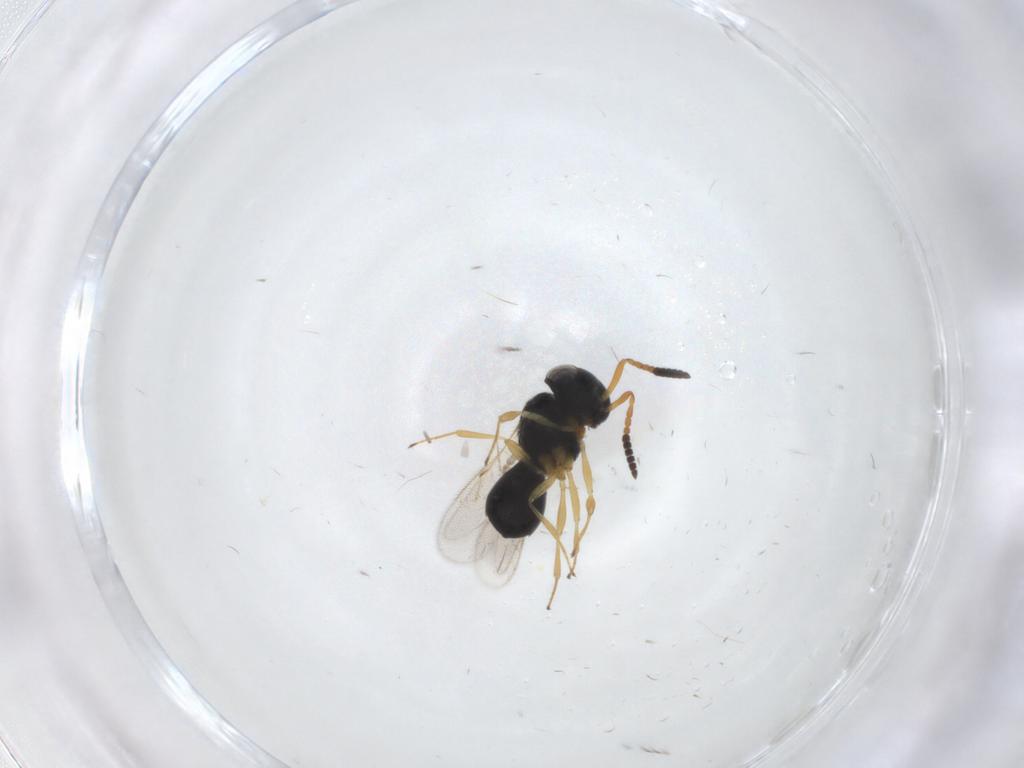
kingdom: Animalia
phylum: Arthropoda
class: Insecta
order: Hymenoptera
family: Scelionidae
